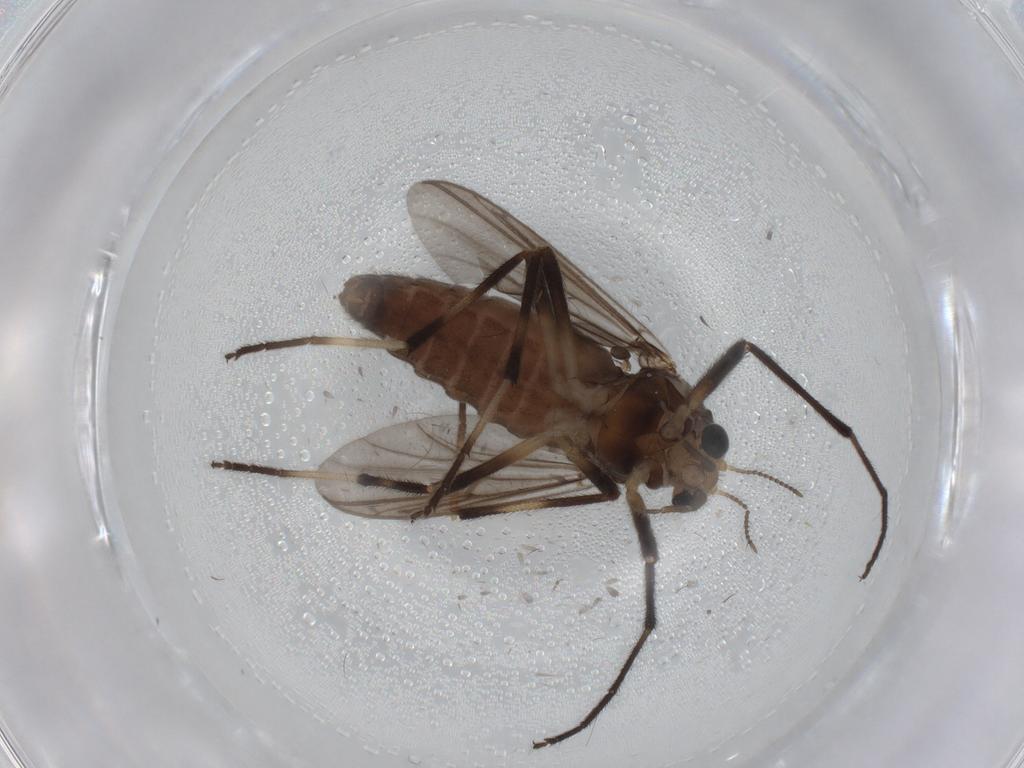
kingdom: Animalia
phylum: Arthropoda
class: Insecta
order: Diptera
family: Chironomidae
